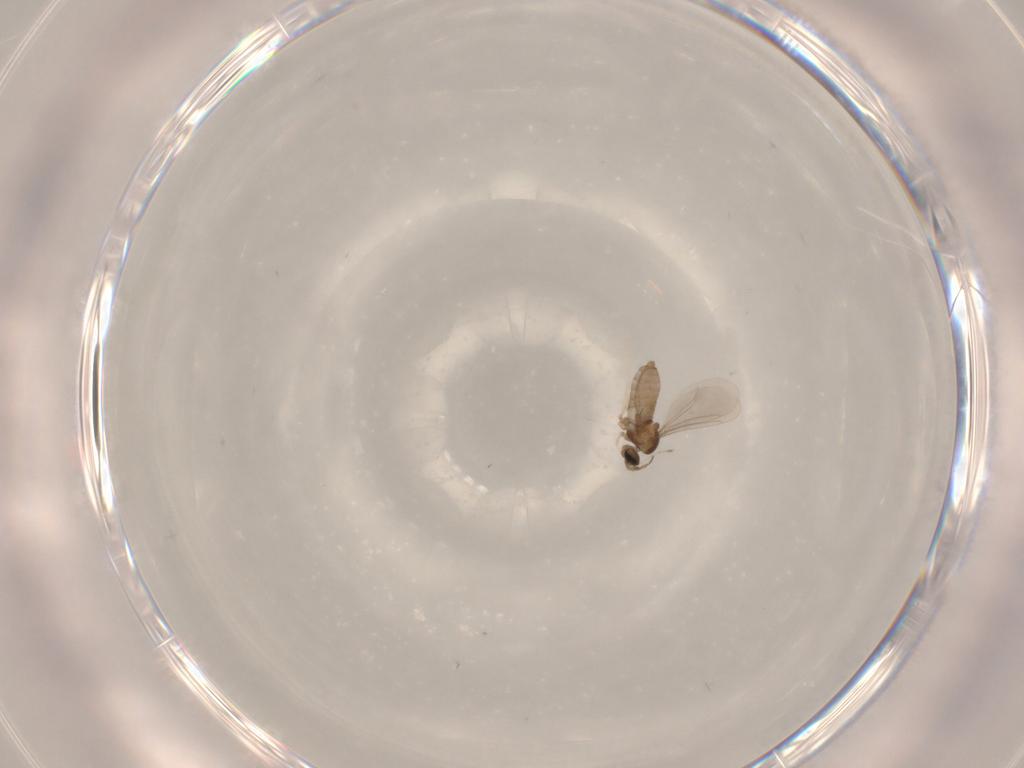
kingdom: Animalia
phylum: Arthropoda
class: Insecta
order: Diptera
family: Cecidomyiidae
